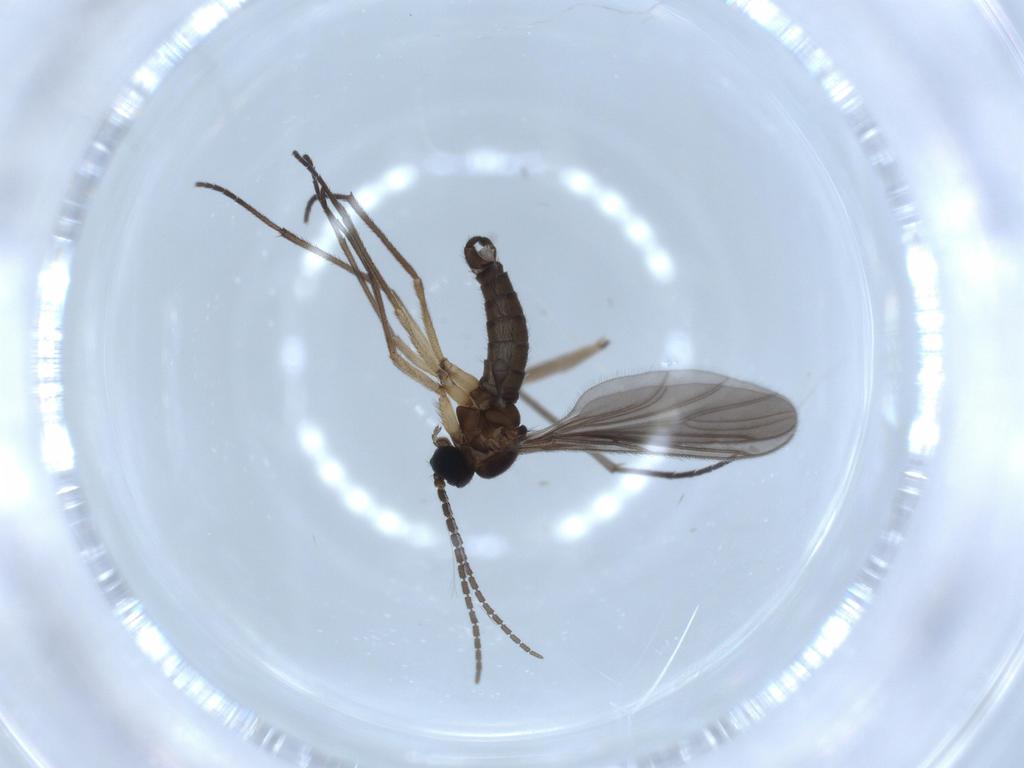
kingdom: Animalia
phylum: Arthropoda
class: Insecta
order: Diptera
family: Sciaridae
